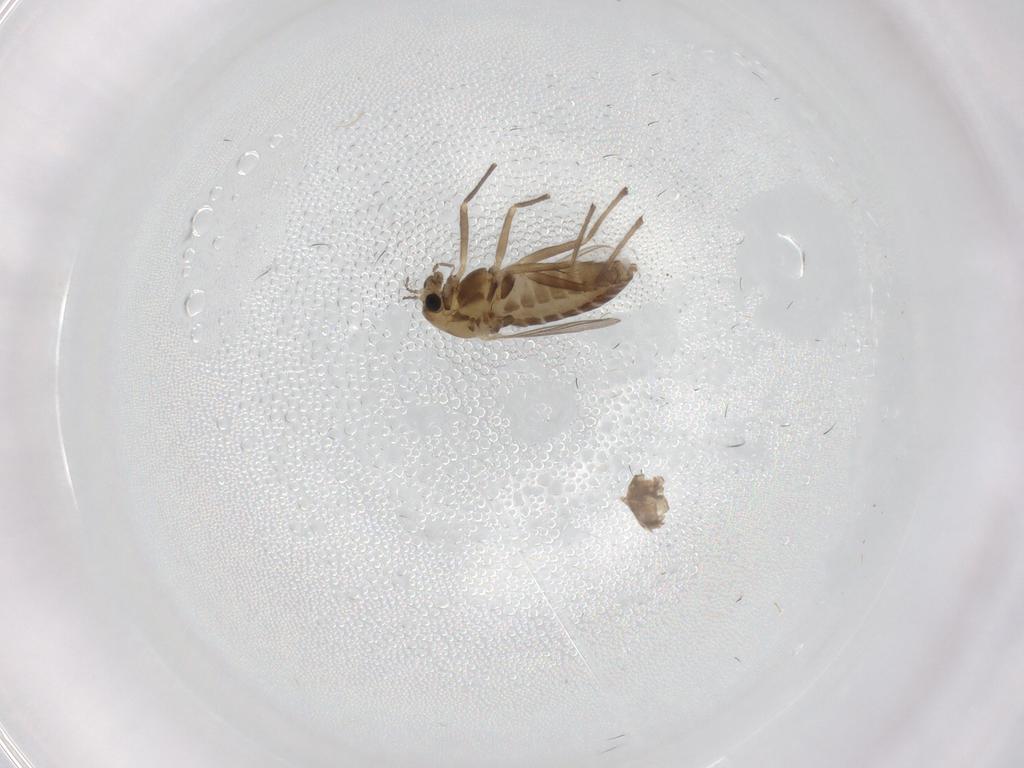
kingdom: Animalia
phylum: Arthropoda
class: Insecta
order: Diptera
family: Chironomidae
